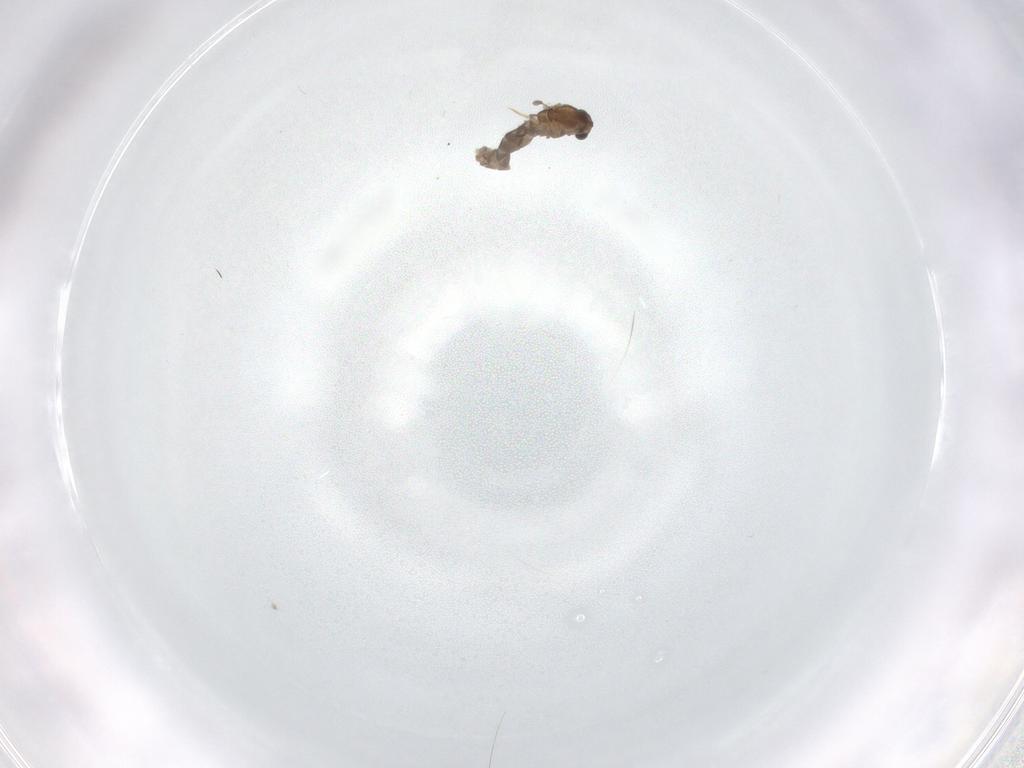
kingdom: Animalia
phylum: Arthropoda
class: Insecta
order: Diptera
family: Chironomidae
